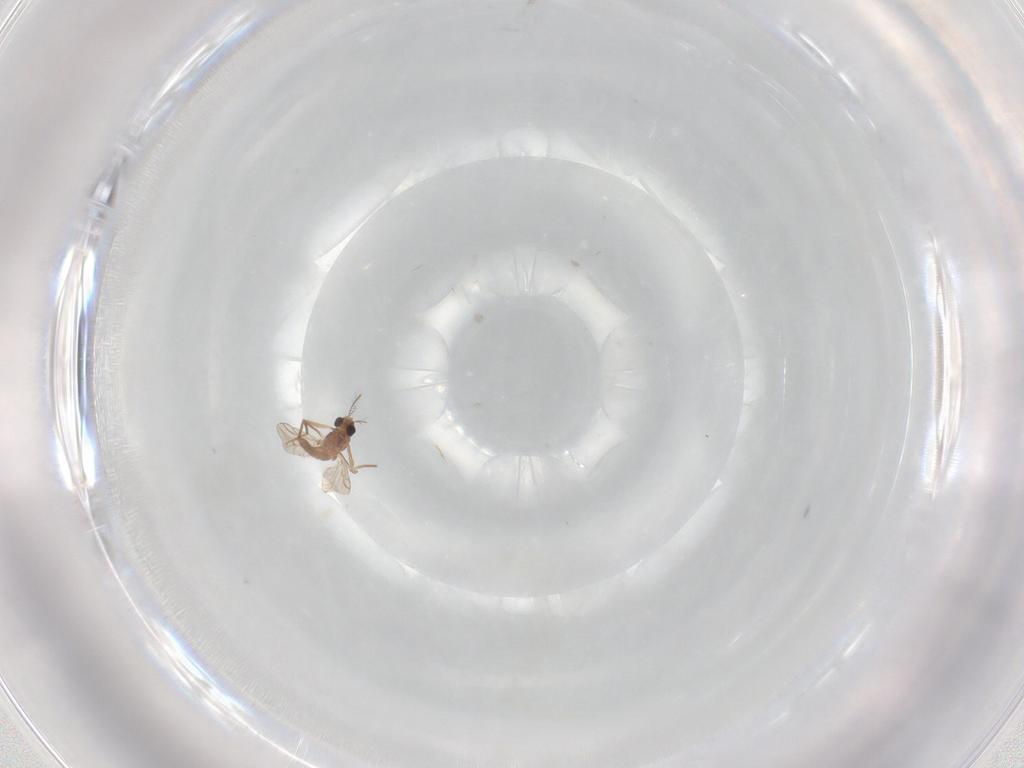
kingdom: Animalia
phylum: Arthropoda
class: Insecta
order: Diptera
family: Chironomidae
